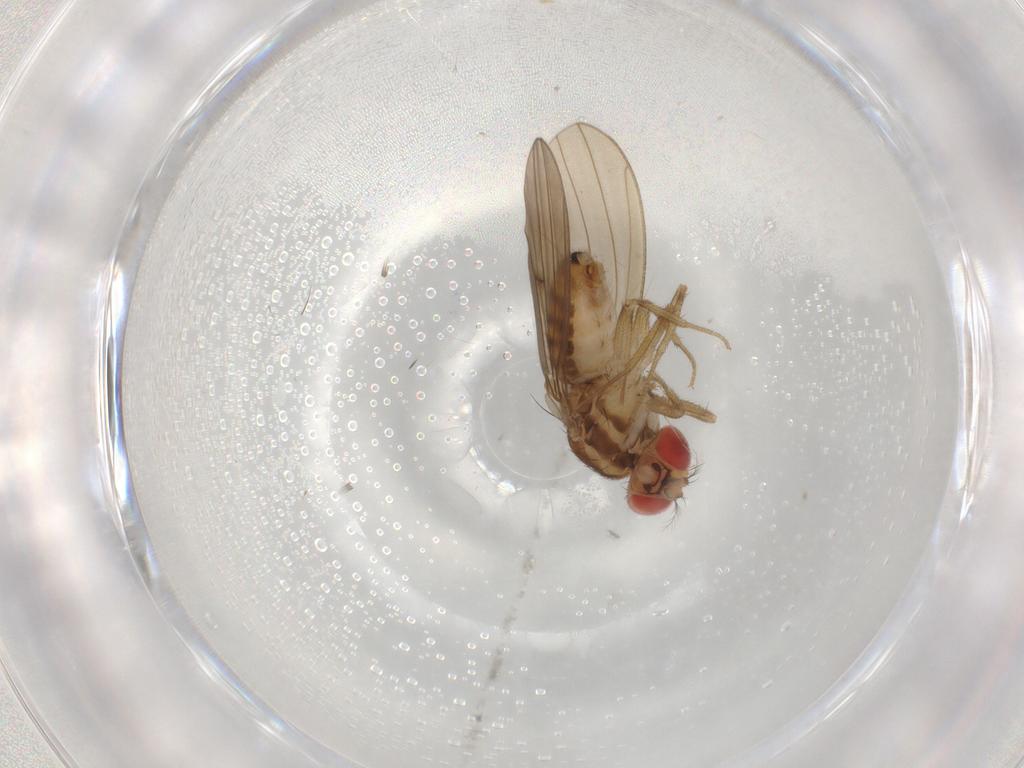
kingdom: Animalia
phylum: Arthropoda
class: Insecta
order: Diptera
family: Drosophilidae
